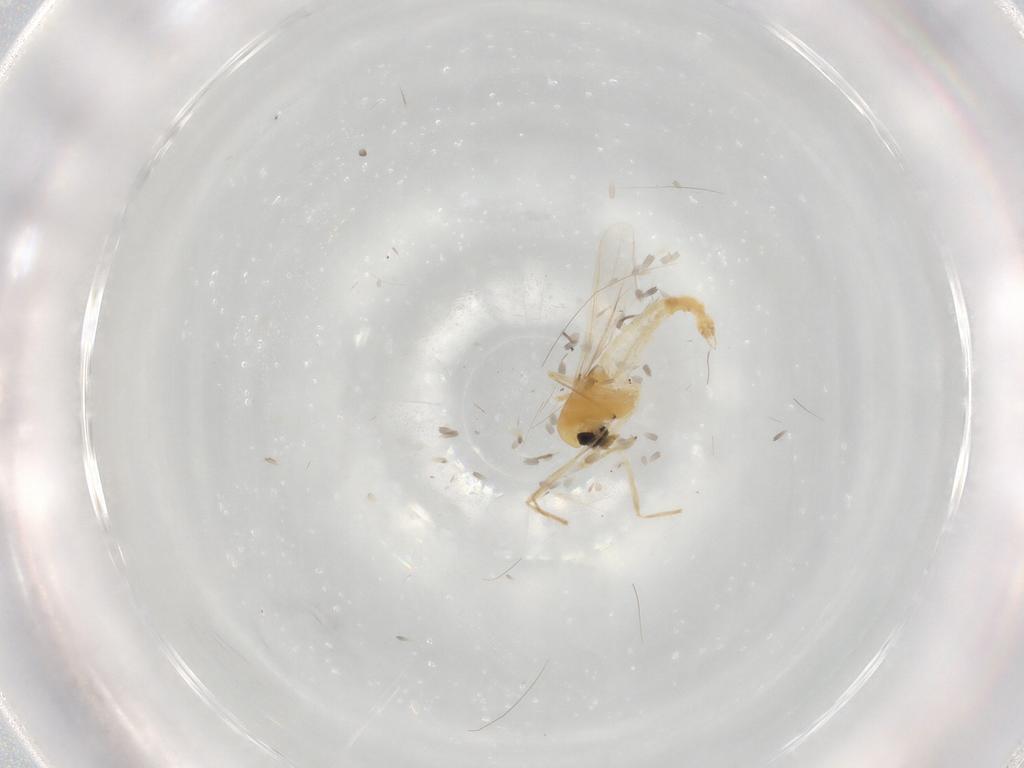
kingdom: Animalia
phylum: Arthropoda
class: Insecta
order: Diptera
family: Chironomidae
